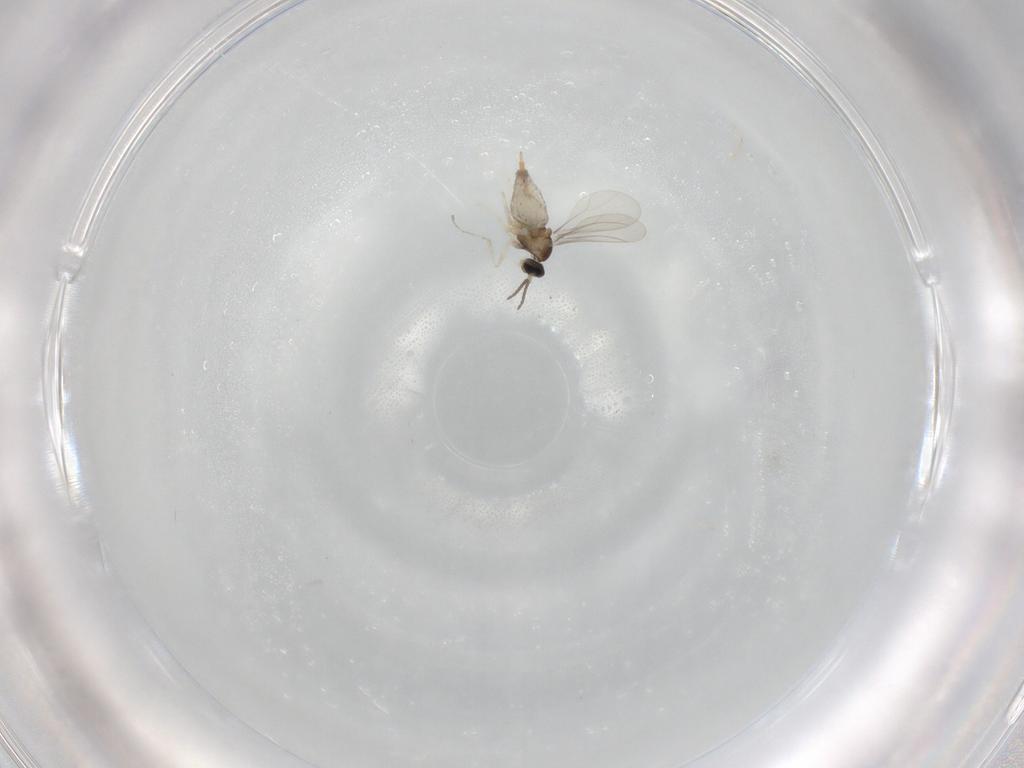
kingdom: Animalia
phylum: Arthropoda
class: Insecta
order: Diptera
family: Cecidomyiidae
